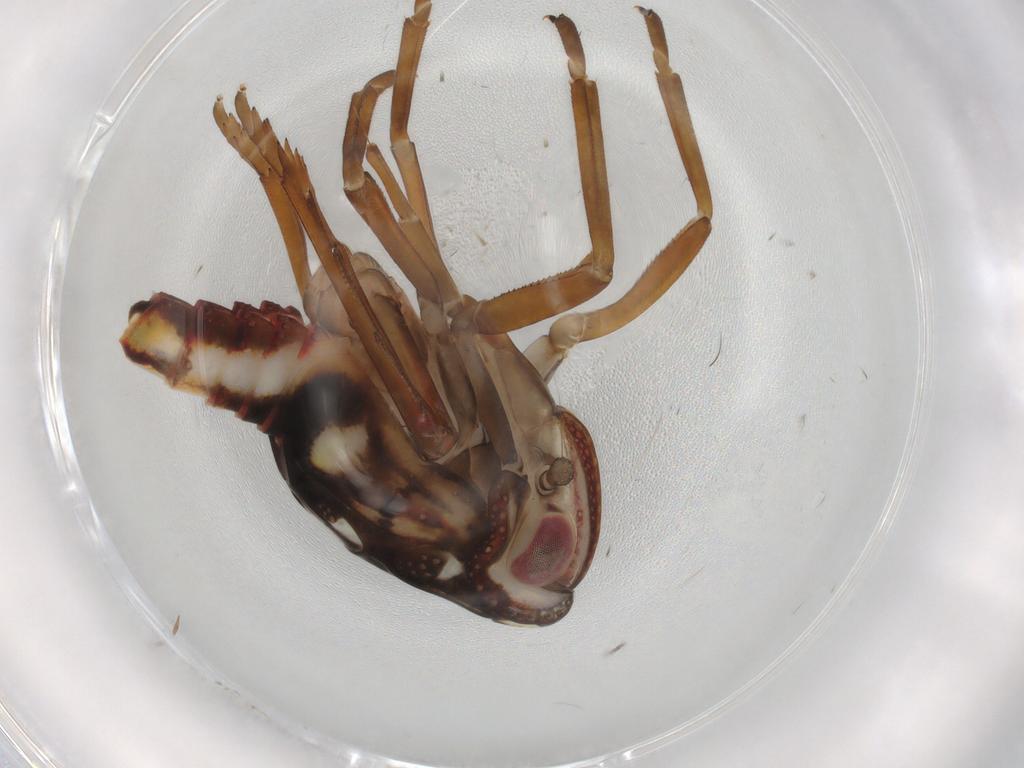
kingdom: Animalia
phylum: Arthropoda
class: Insecta
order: Hemiptera
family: Nogodinidae
